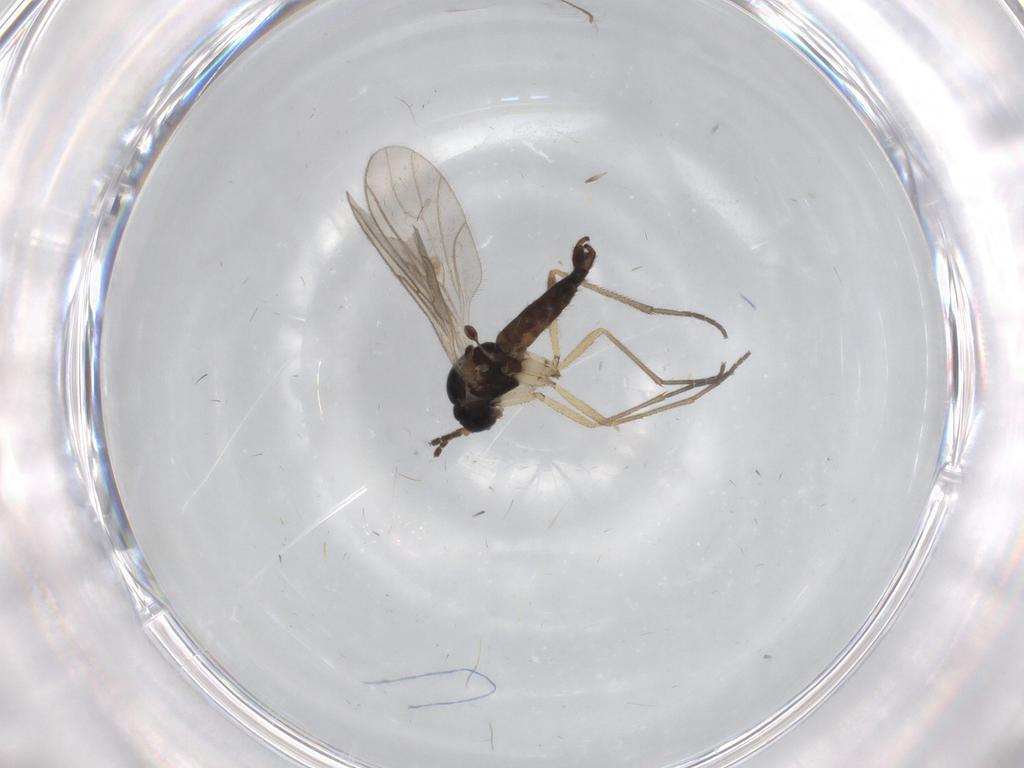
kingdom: Animalia
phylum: Arthropoda
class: Insecta
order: Diptera
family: Sciaridae
